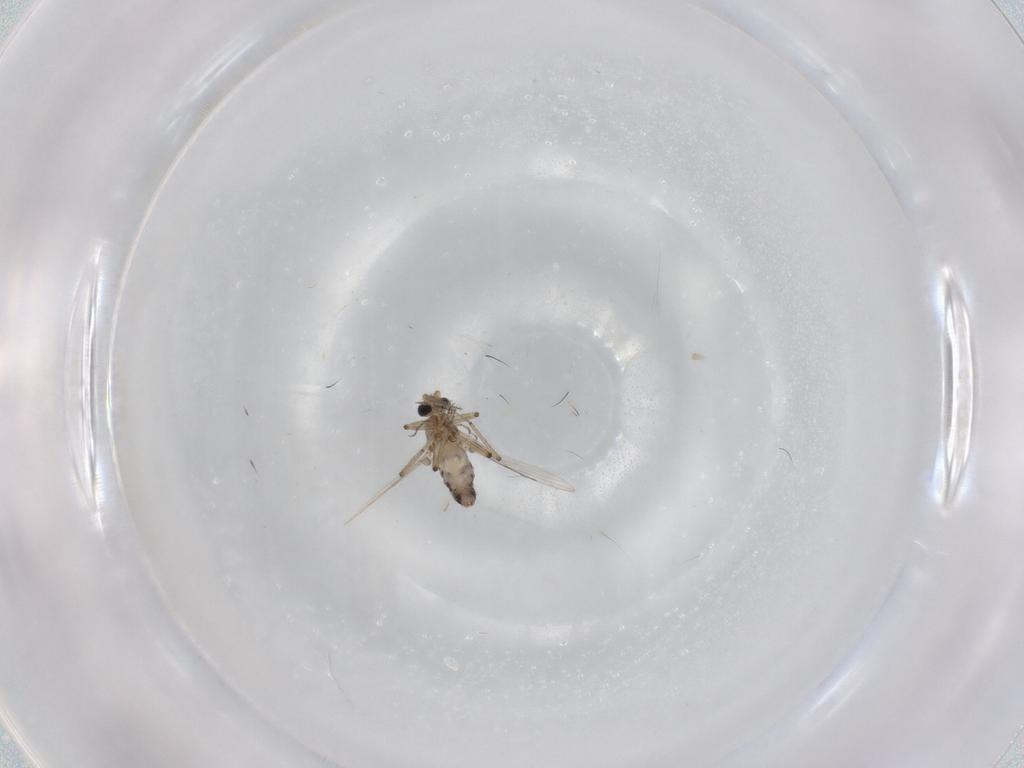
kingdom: Animalia
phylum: Arthropoda
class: Insecta
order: Diptera
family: Ceratopogonidae
